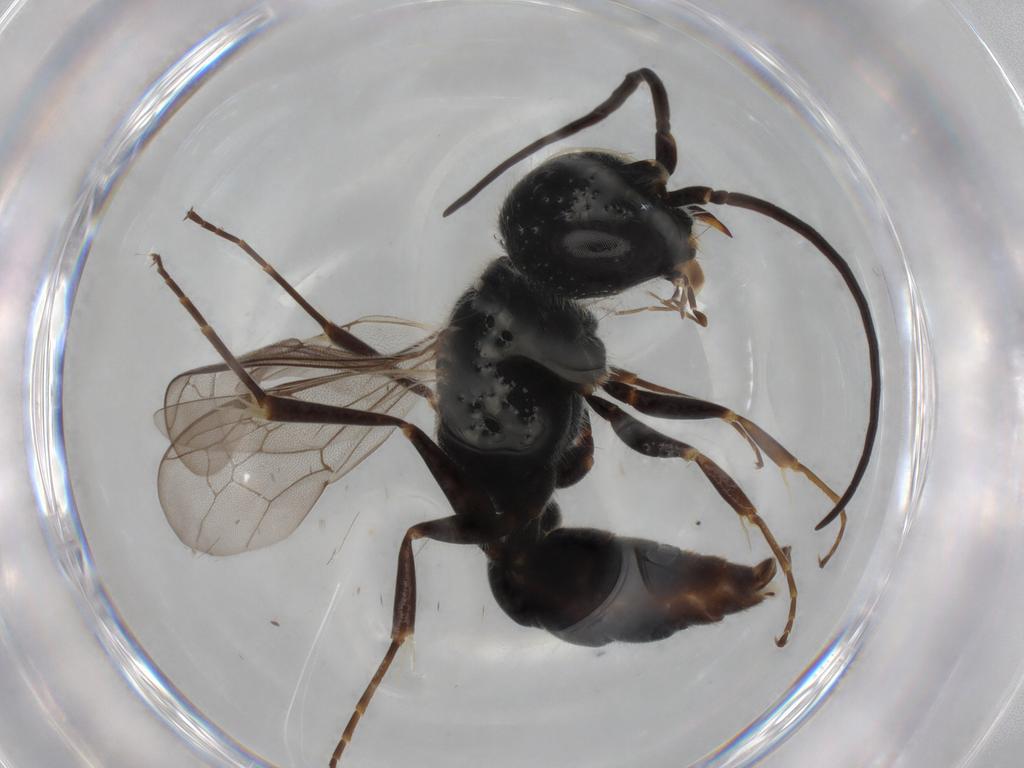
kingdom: Animalia
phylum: Arthropoda
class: Insecta
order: Hymenoptera
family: Ampulicidae
